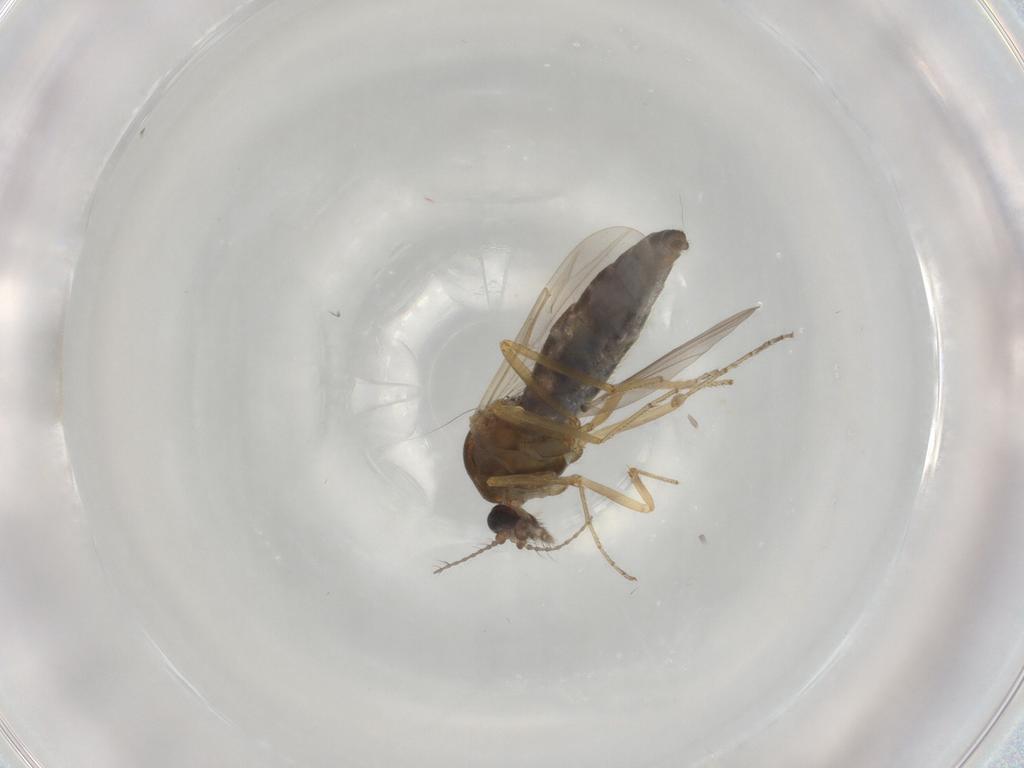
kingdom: Animalia
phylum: Arthropoda
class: Insecta
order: Diptera
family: Ceratopogonidae
